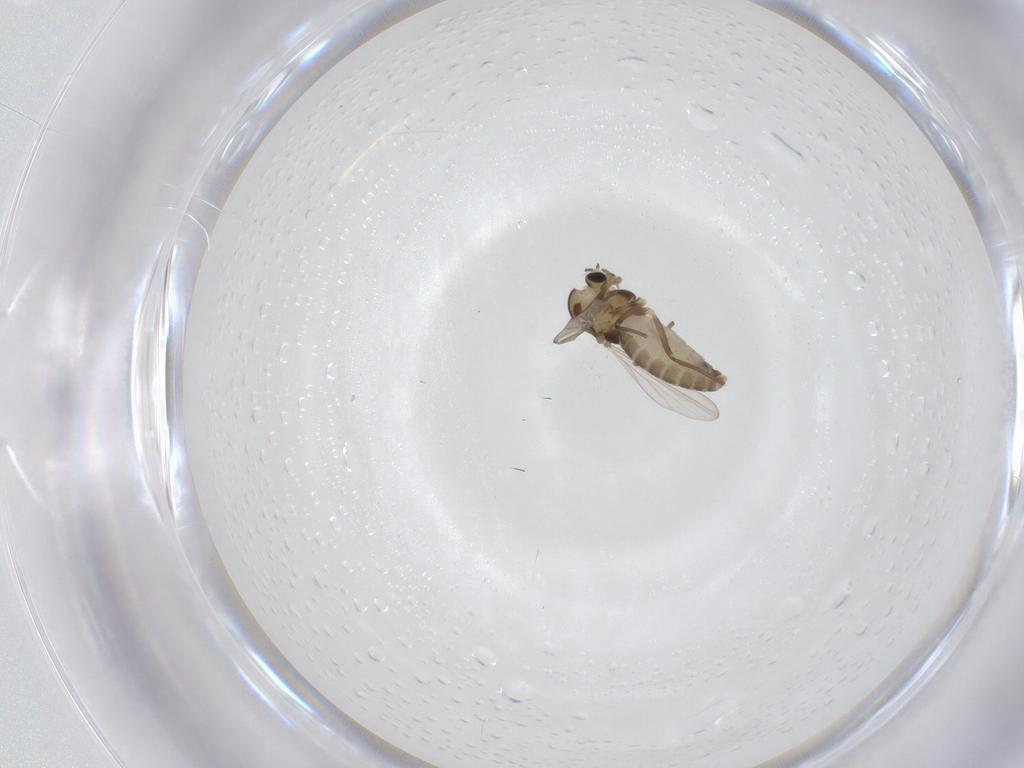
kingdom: Animalia
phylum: Arthropoda
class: Insecta
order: Diptera
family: Chironomidae
